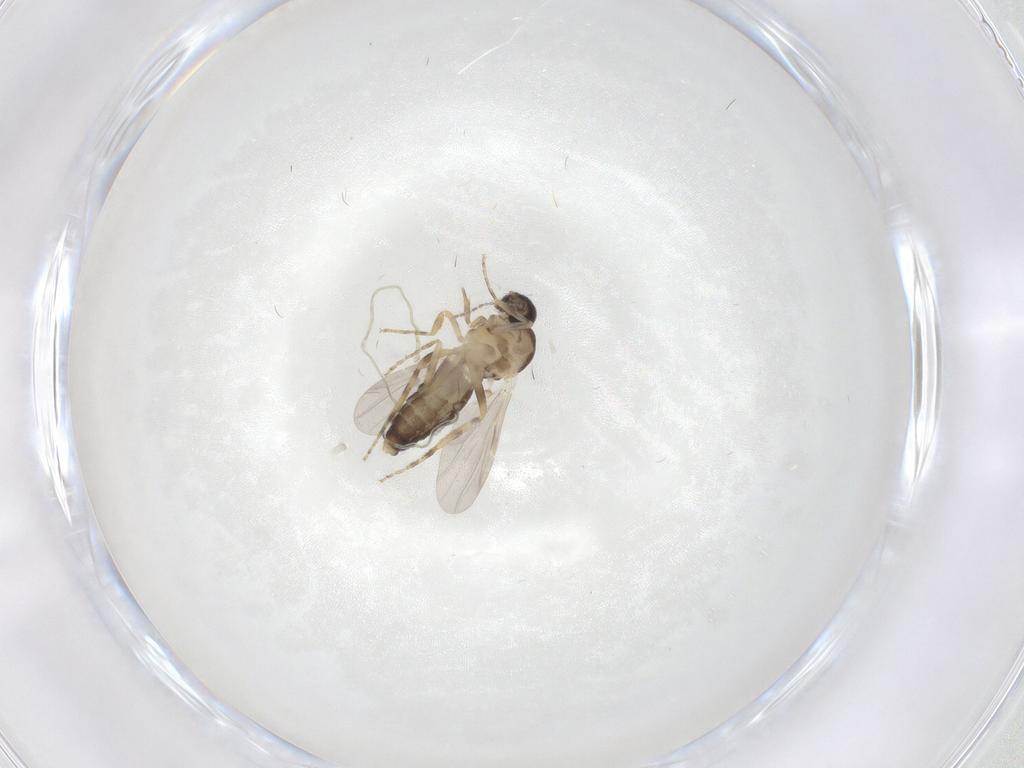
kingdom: Animalia
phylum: Arthropoda
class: Insecta
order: Diptera
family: Ceratopogonidae
